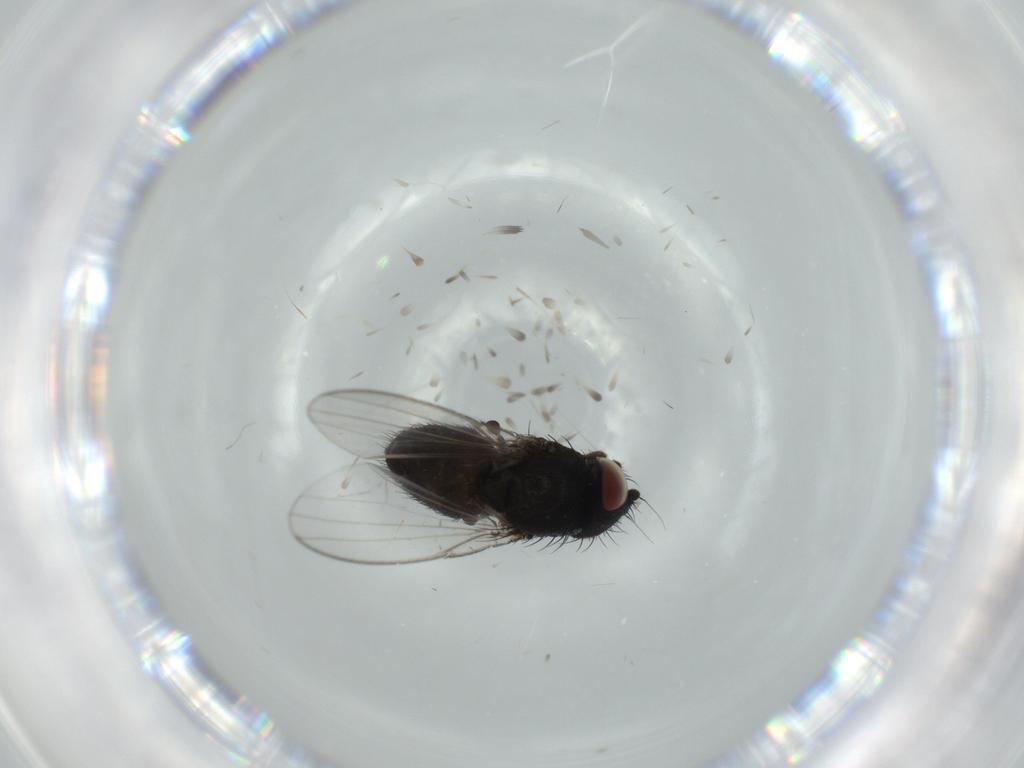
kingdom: Animalia
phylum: Arthropoda
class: Insecta
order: Diptera
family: Milichiidae
